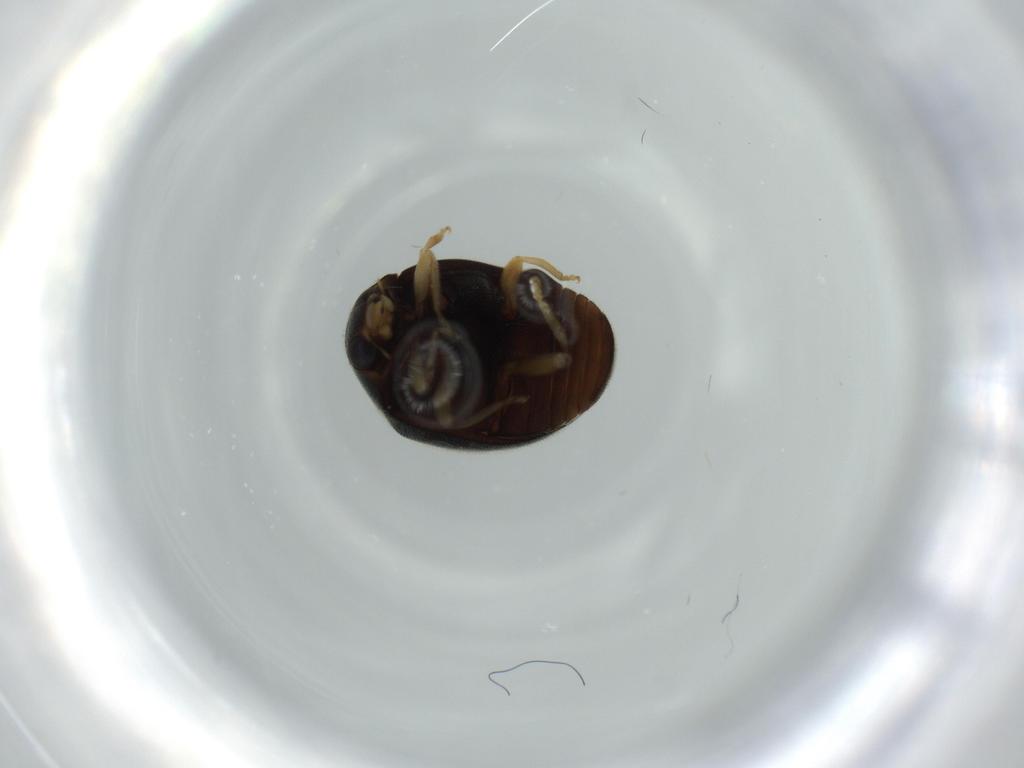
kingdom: Animalia
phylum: Arthropoda
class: Insecta
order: Coleoptera
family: Coccinellidae
